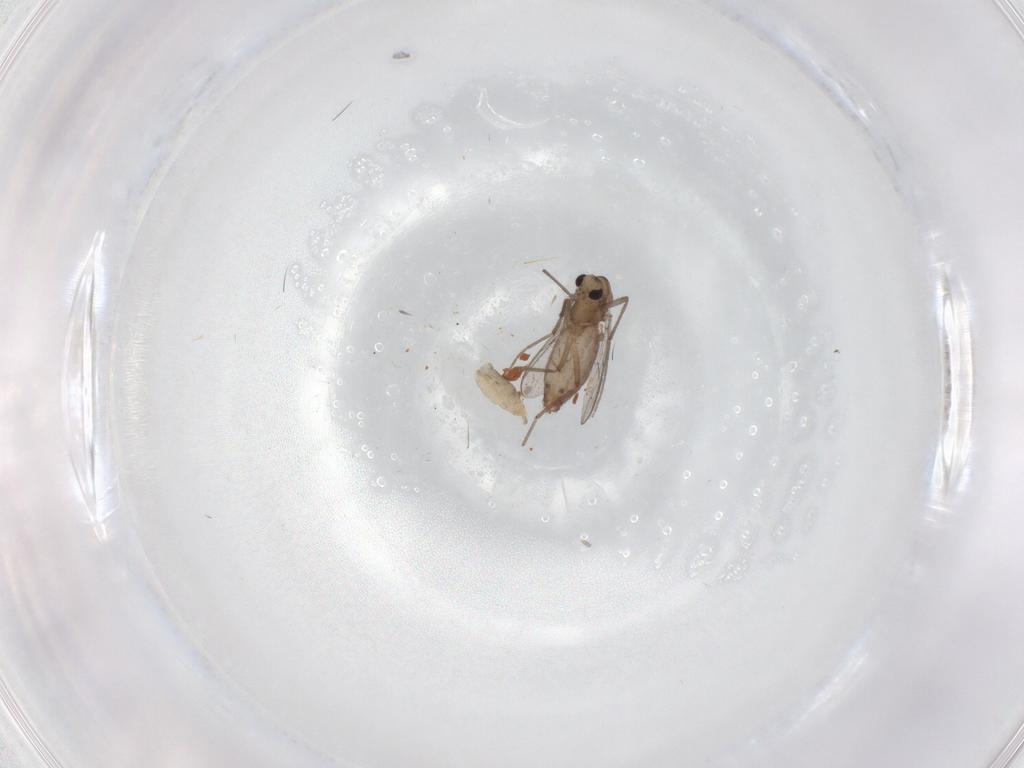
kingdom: Animalia
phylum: Arthropoda
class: Insecta
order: Diptera
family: Chironomidae
